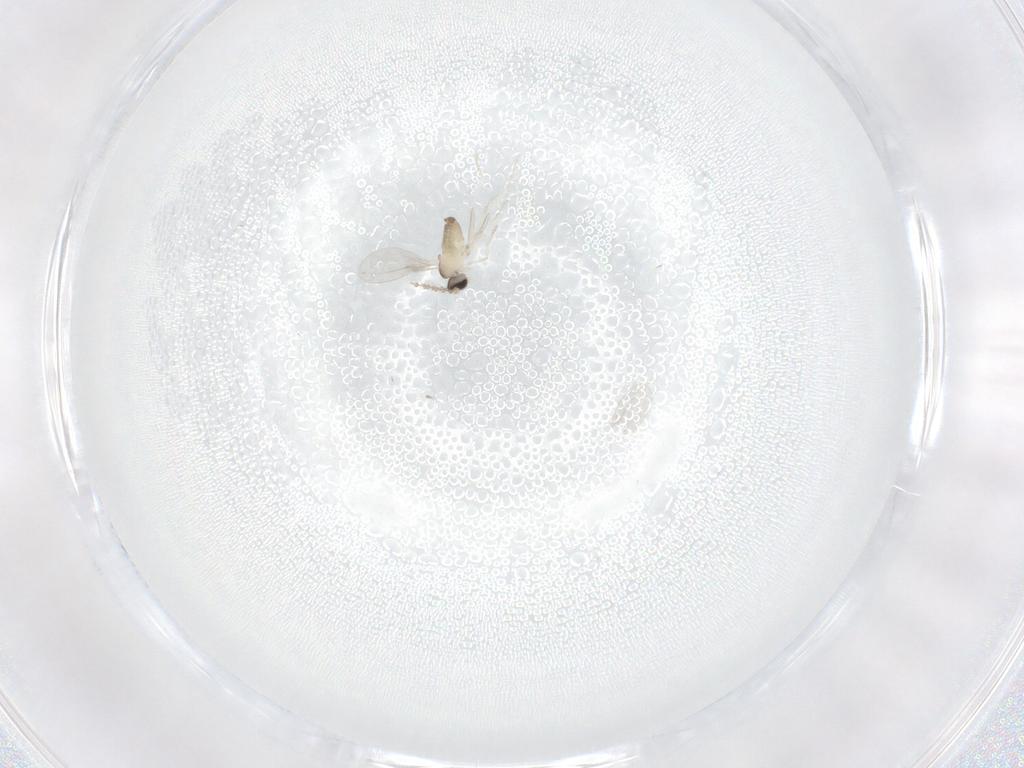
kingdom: Animalia
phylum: Arthropoda
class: Insecta
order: Diptera
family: Cecidomyiidae
